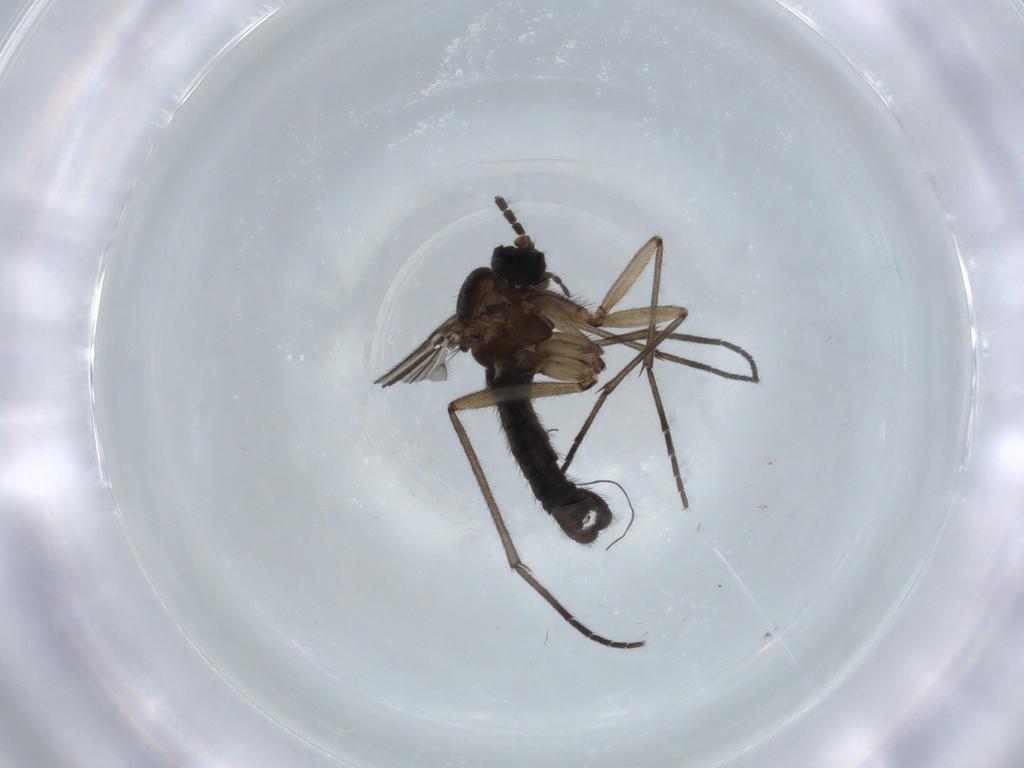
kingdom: Animalia
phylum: Arthropoda
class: Insecta
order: Diptera
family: Sciaridae
